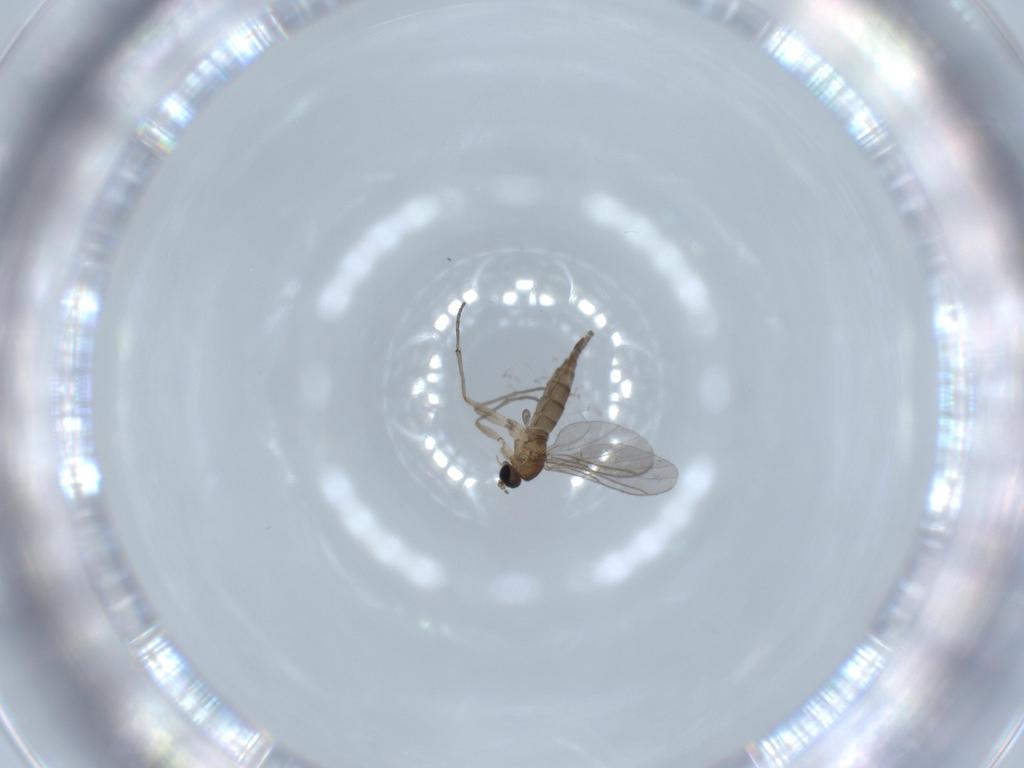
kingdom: Animalia
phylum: Arthropoda
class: Insecta
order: Diptera
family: Sciaridae
